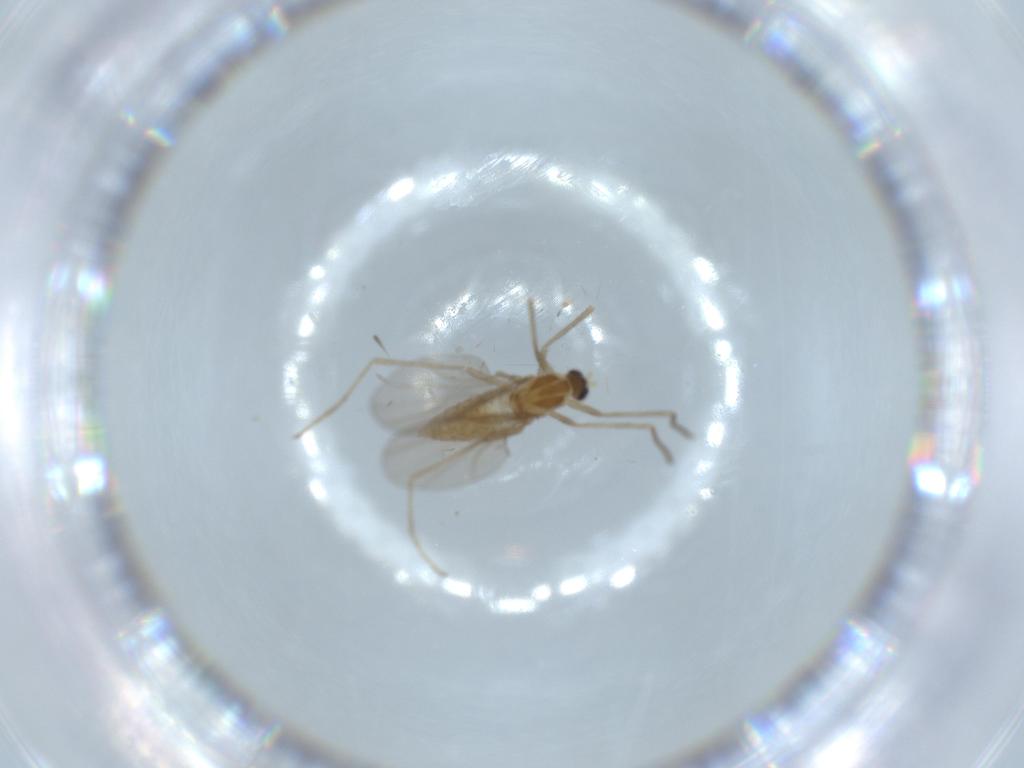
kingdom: Animalia
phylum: Arthropoda
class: Insecta
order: Diptera
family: Cecidomyiidae
